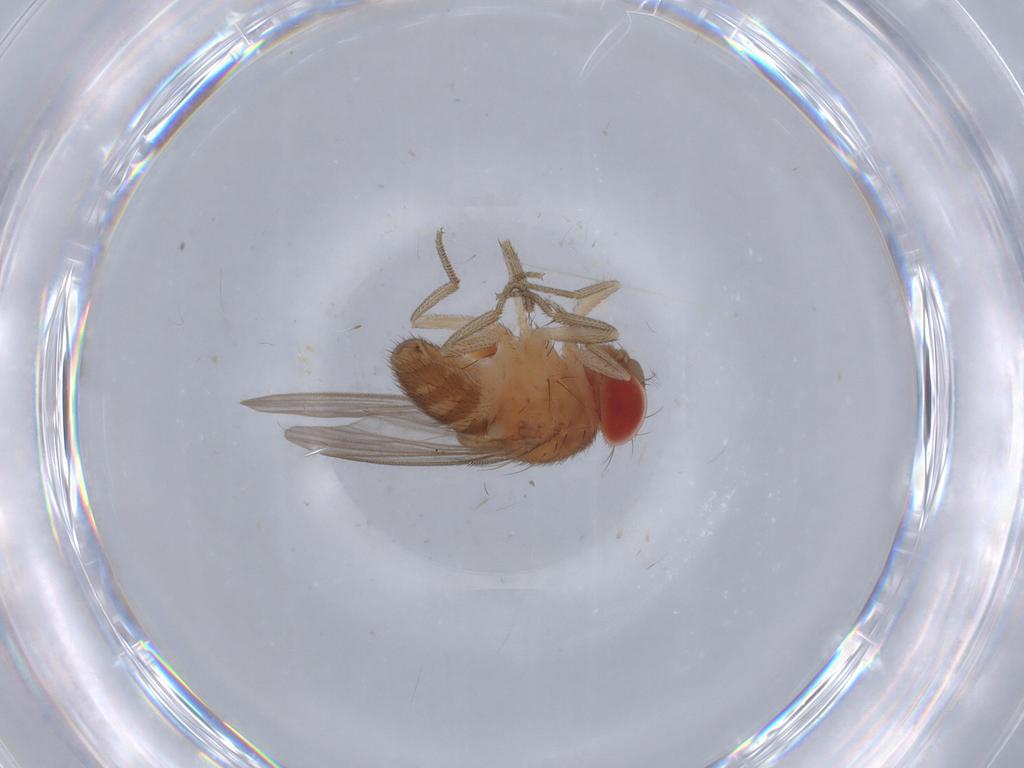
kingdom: Animalia
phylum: Arthropoda
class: Insecta
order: Diptera
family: Drosophilidae
